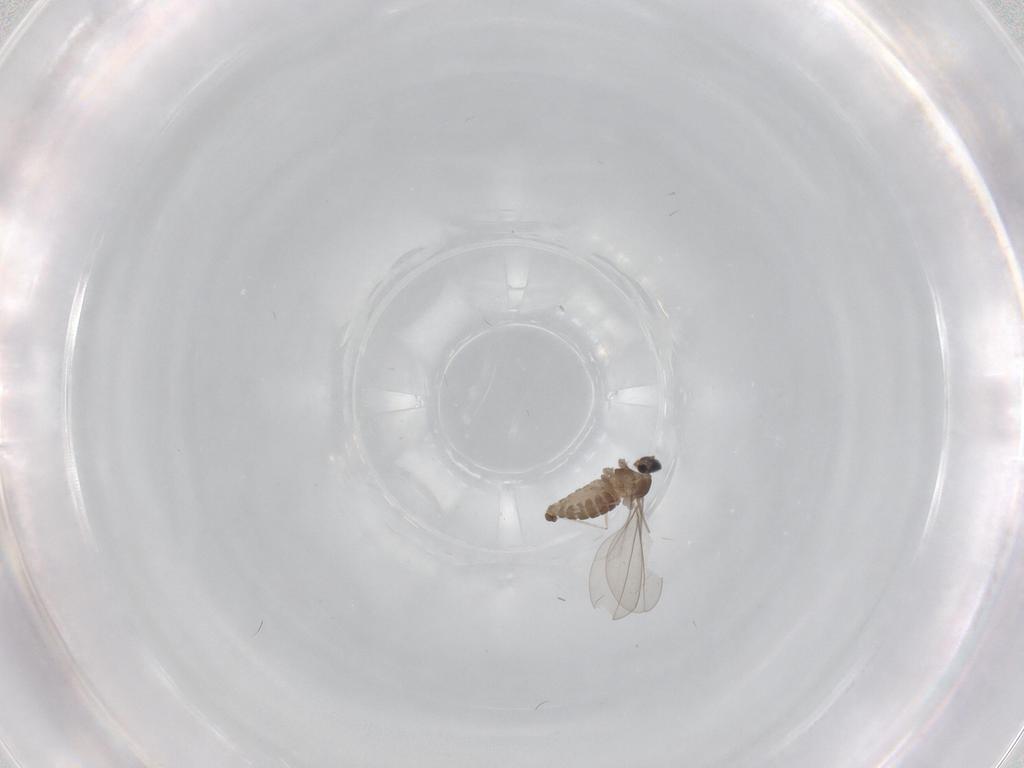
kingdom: Animalia
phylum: Arthropoda
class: Insecta
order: Diptera
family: Cecidomyiidae
